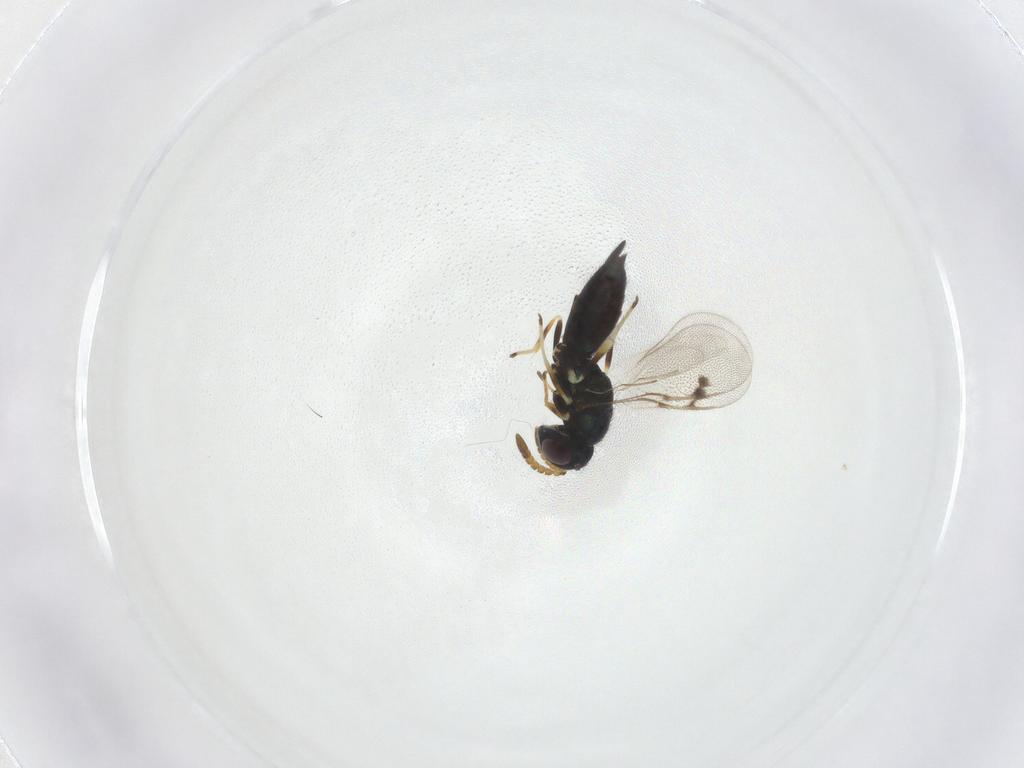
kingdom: Animalia
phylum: Arthropoda
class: Insecta
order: Hymenoptera
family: Pirenidae
